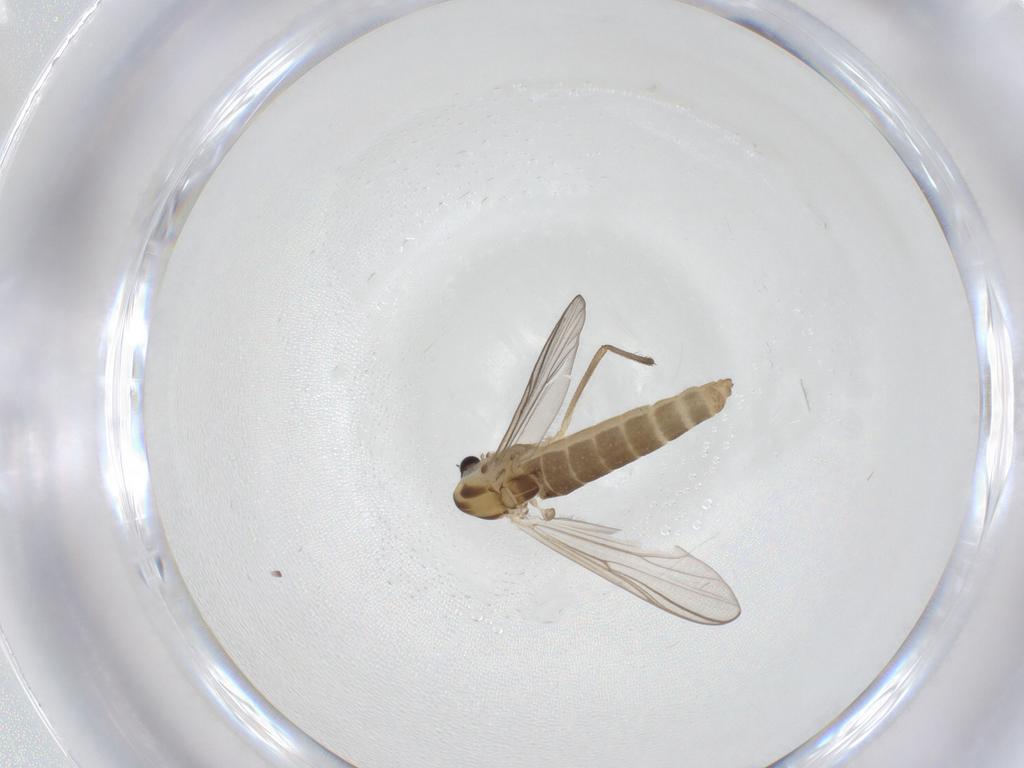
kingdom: Animalia
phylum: Arthropoda
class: Insecta
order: Diptera
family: Chironomidae
